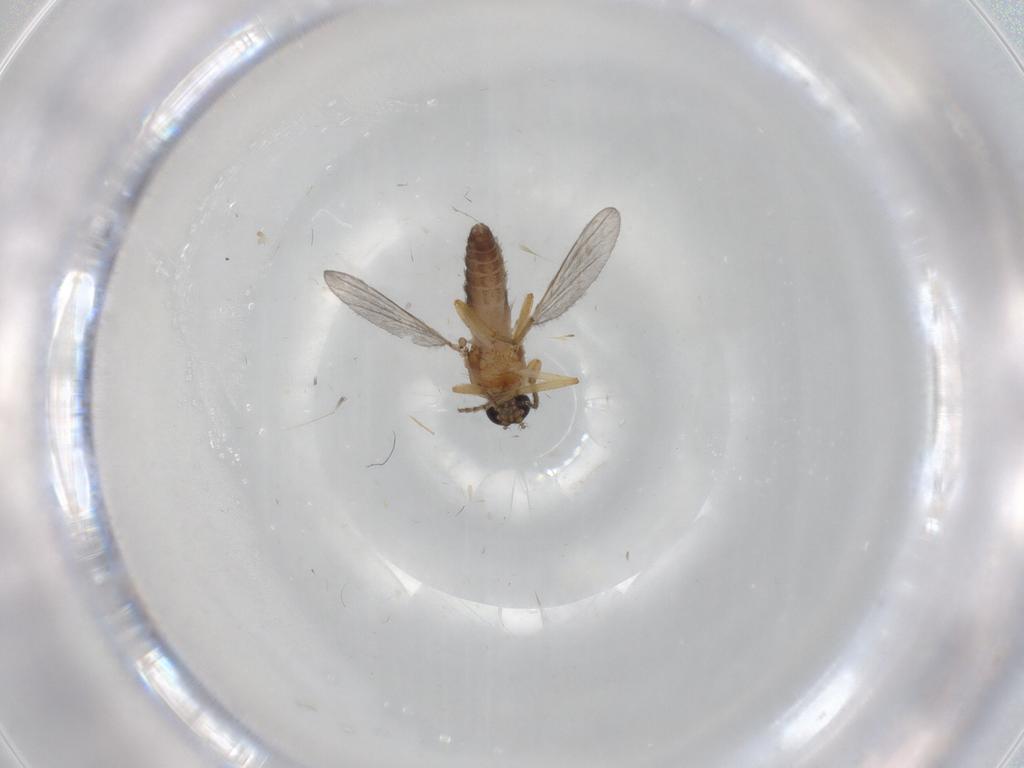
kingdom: Animalia
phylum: Arthropoda
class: Insecta
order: Diptera
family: Ceratopogonidae
